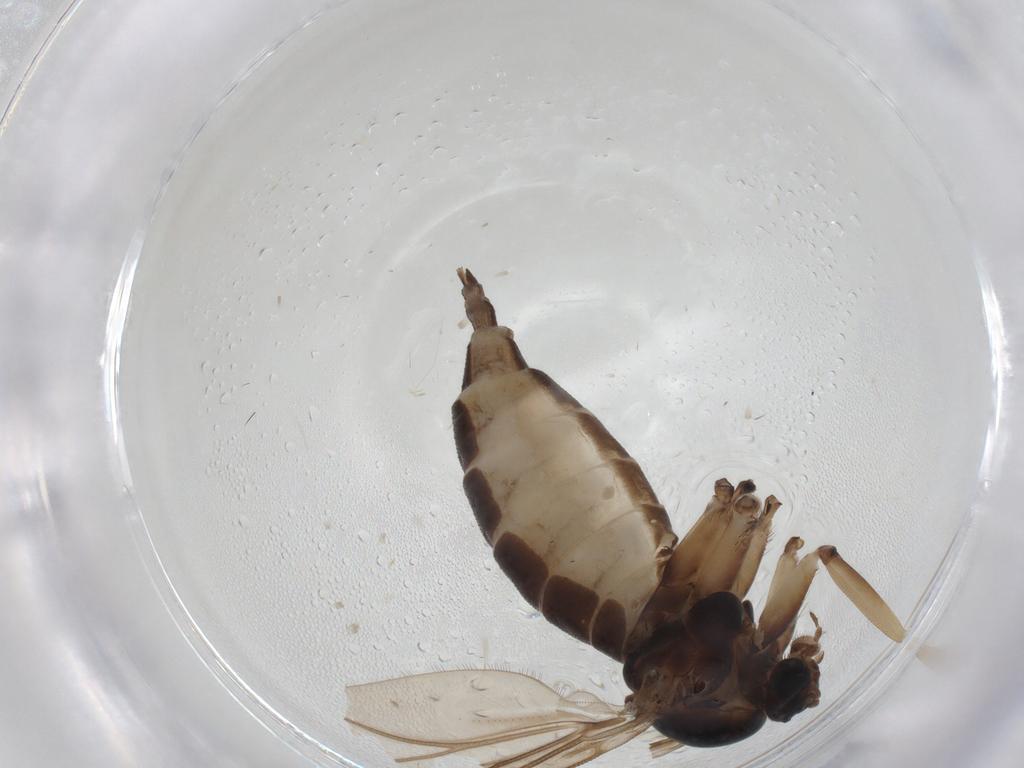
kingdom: Animalia
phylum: Arthropoda
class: Insecta
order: Diptera
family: Sciaridae
